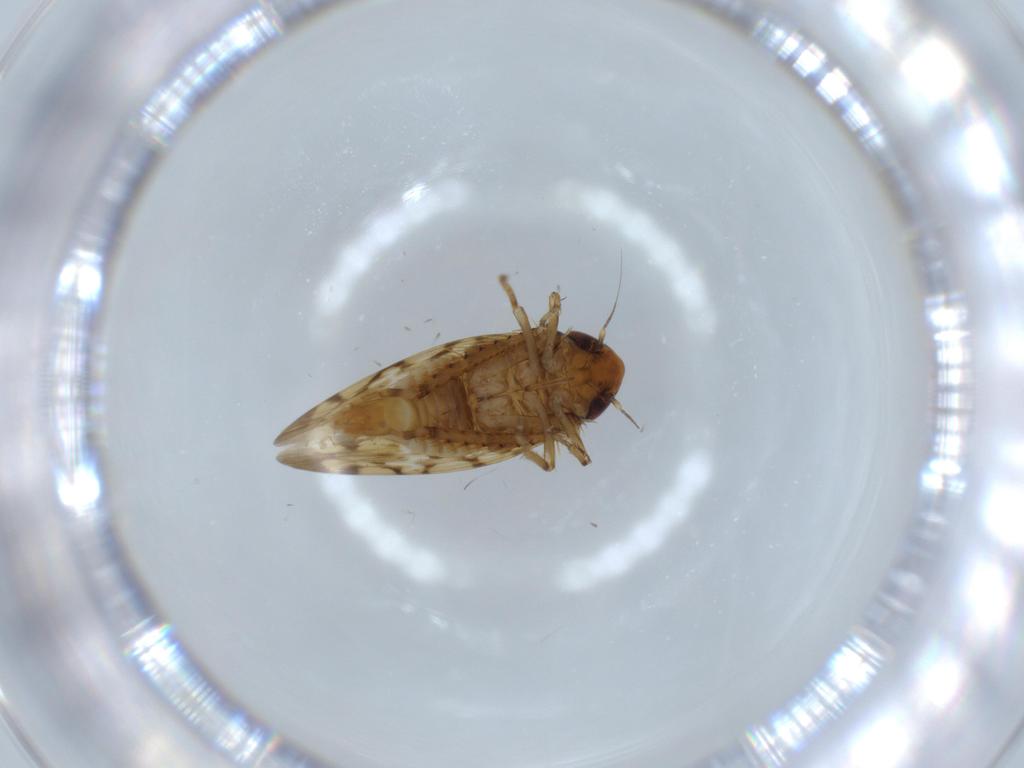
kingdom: Animalia
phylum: Arthropoda
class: Insecta
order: Hemiptera
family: Cicadellidae
